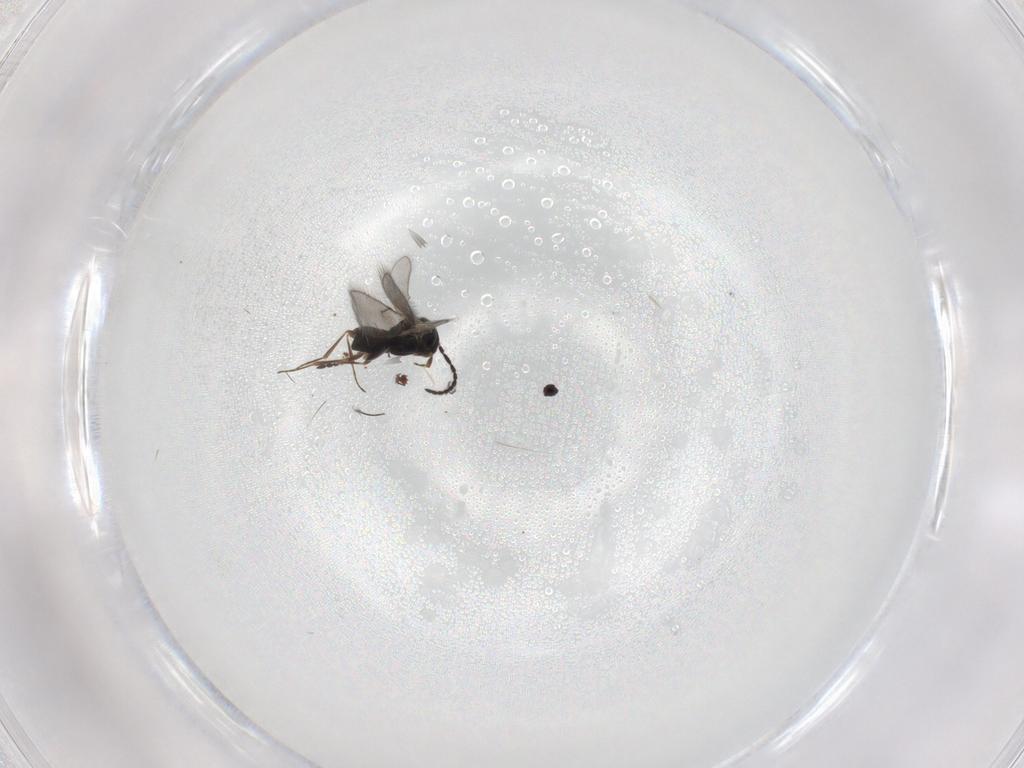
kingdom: Animalia
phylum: Arthropoda
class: Insecta
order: Hymenoptera
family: Scelionidae
